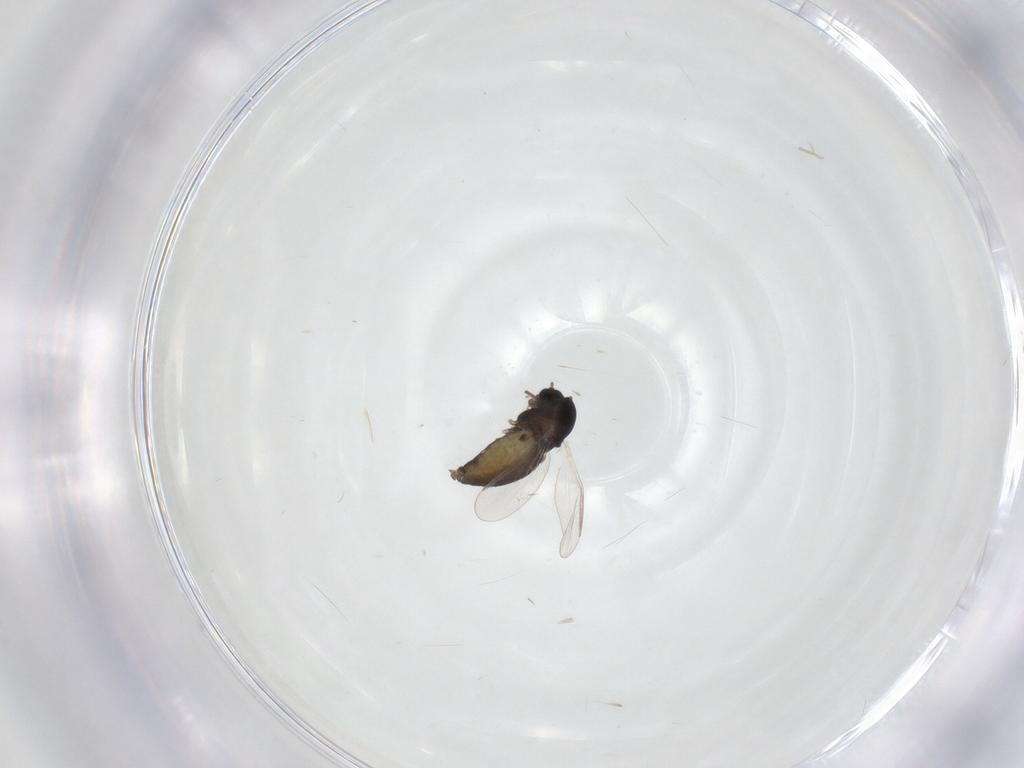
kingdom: Animalia
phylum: Arthropoda
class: Insecta
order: Diptera
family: Chironomidae
